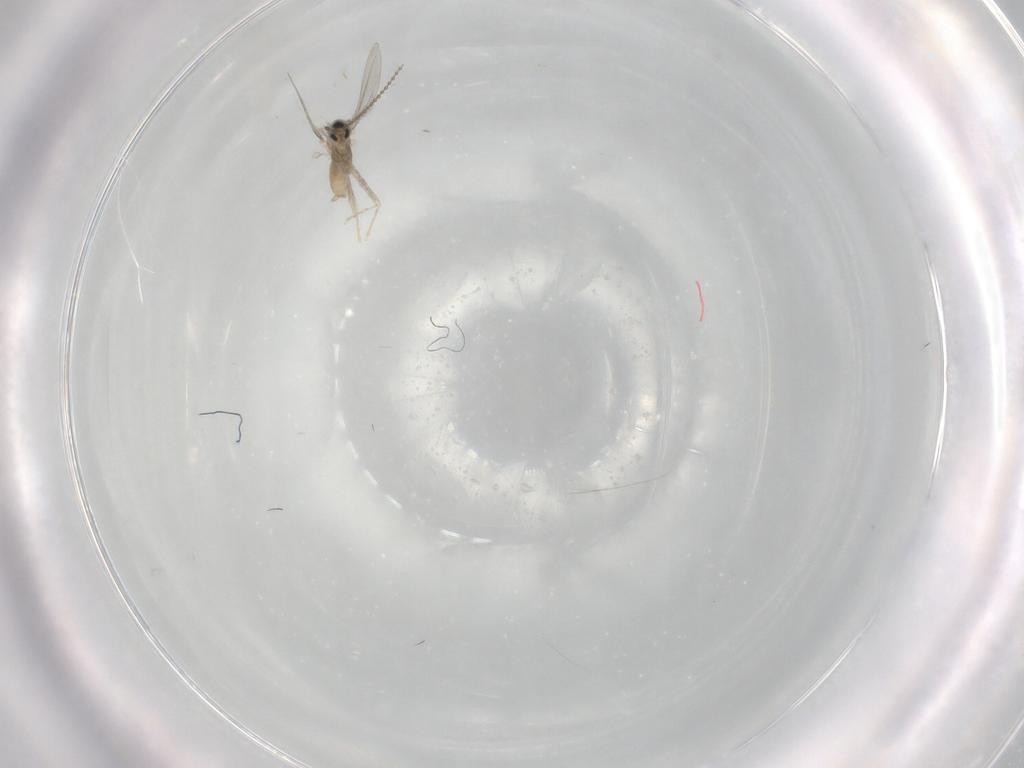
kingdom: Animalia
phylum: Arthropoda
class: Insecta
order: Diptera
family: Cecidomyiidae
